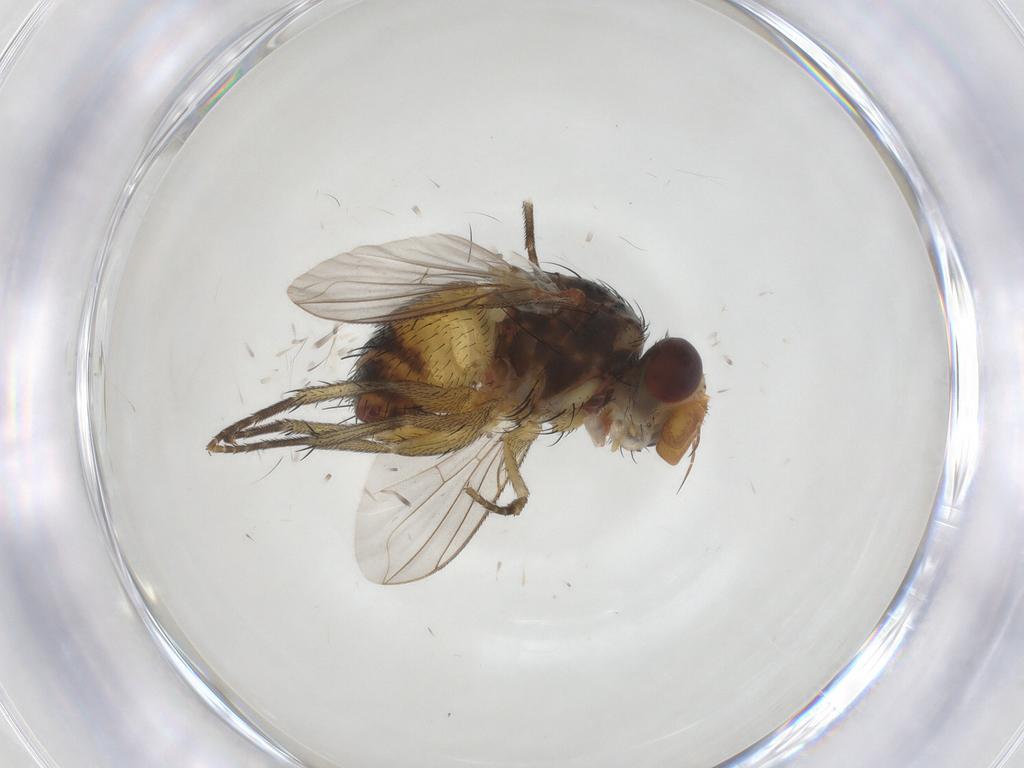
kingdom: Animalia
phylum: Arthropoda
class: Insecta
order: Diptera
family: Tachinidae
